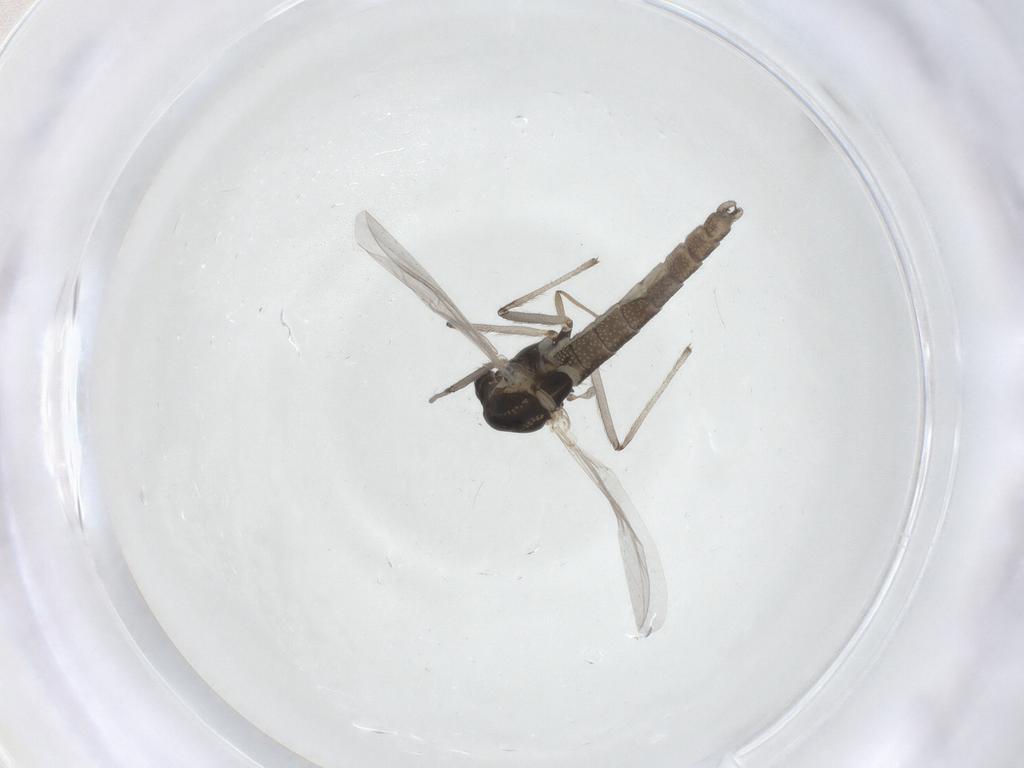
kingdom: Animalia
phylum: Arthropoda
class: Insecta
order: Diptera
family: Chironomidae
